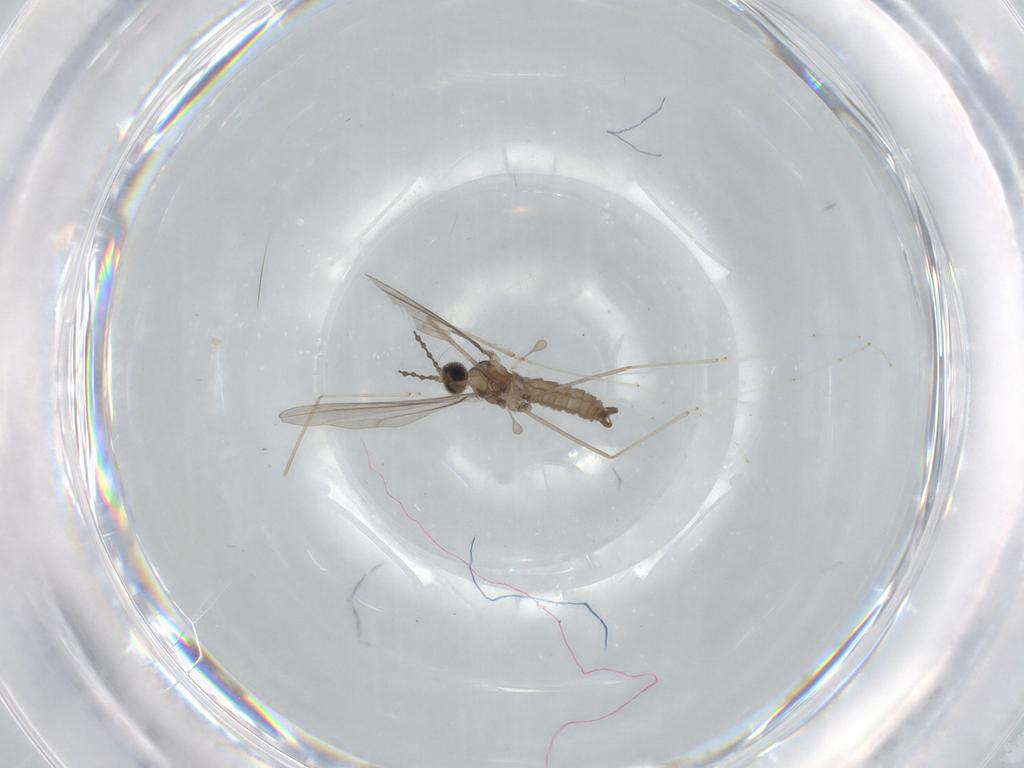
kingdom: Animalia
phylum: Arthropoda
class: Insecta
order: Diptera
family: Cecidomyiidae
